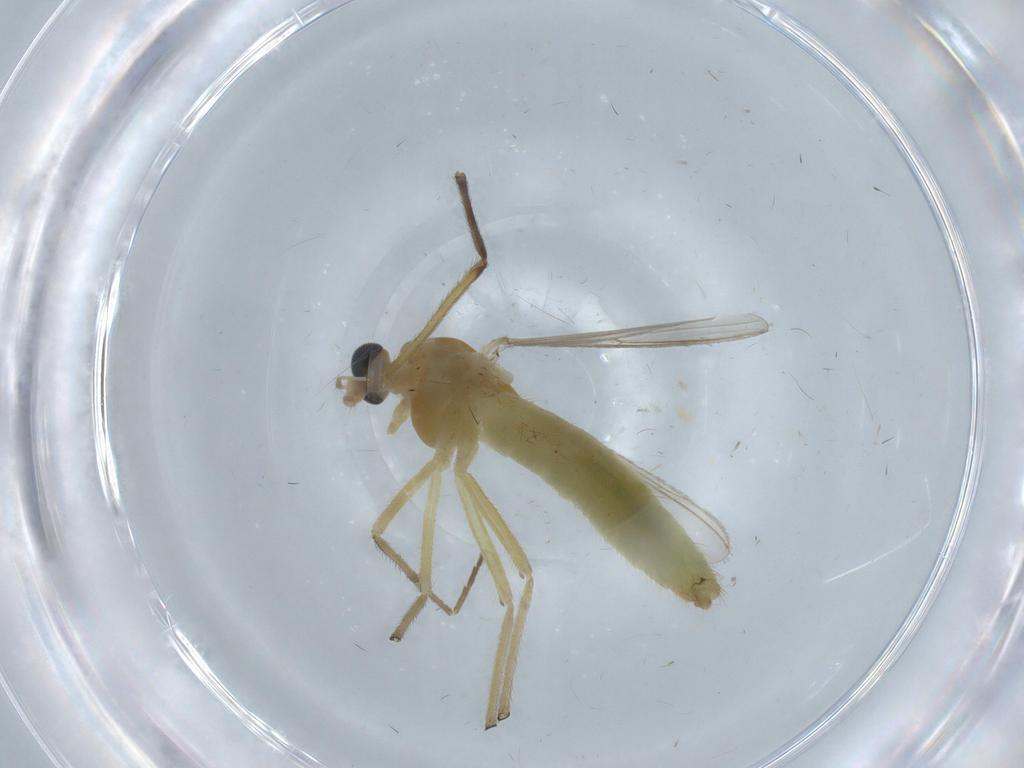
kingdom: Animalia
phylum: Arthropoda
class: Insecta
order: Diptera
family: Chironomidae
